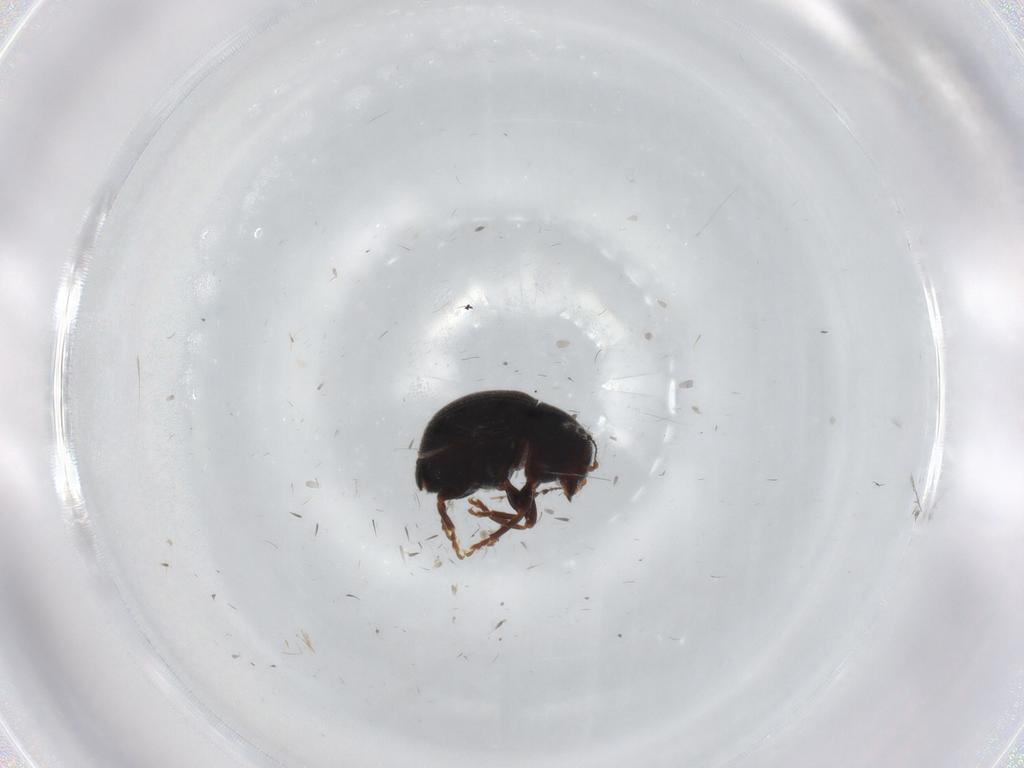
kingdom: Animalia
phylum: Arthropoda
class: Insecta
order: Coleoptera
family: Anthribidae
